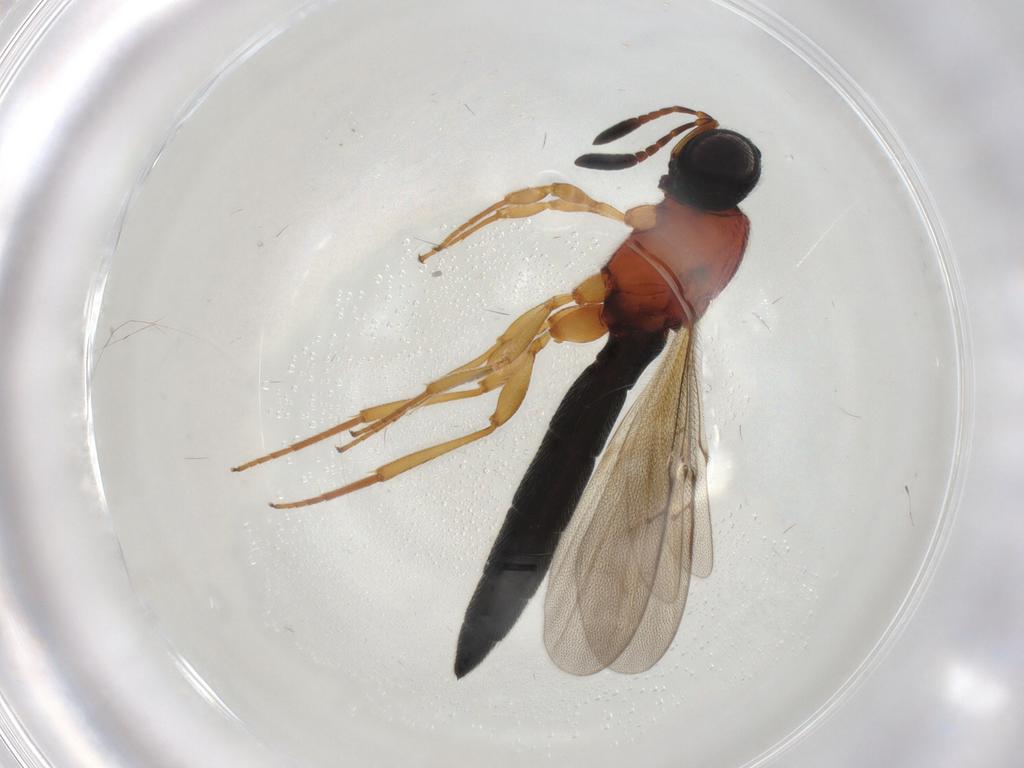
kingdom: Animalia
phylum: Arthropoda
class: Insecta
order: Hymenoptera
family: Scelionidae
